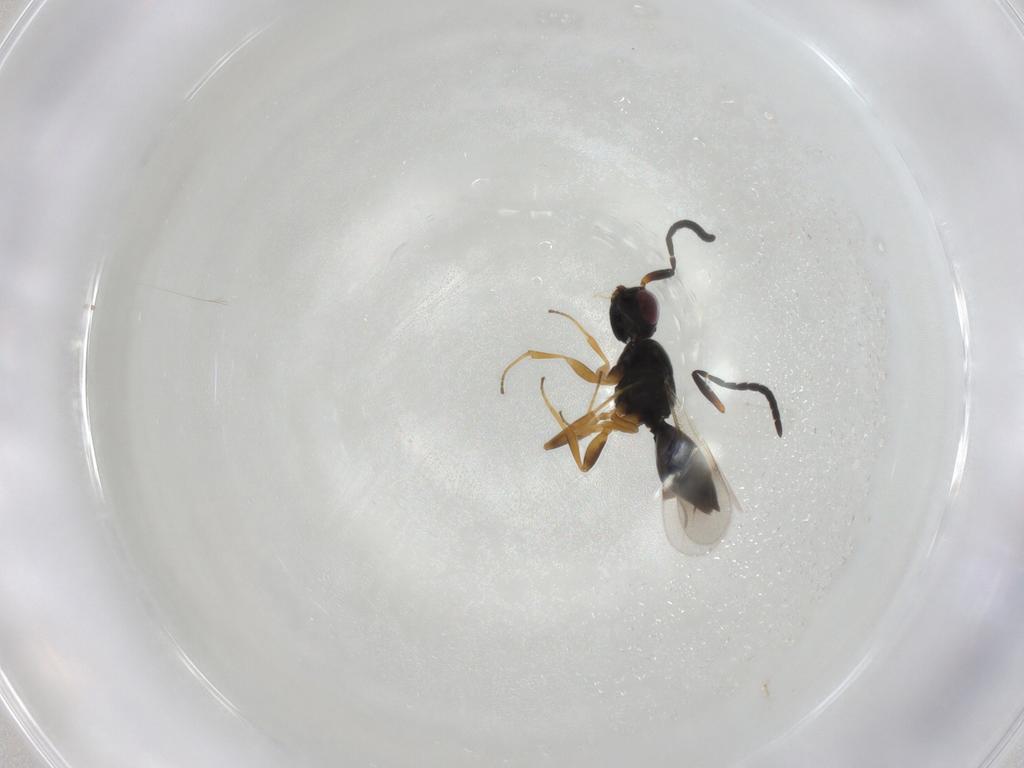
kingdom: Animalia
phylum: Arthropoda
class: Insecta
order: Hymenoptera
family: Megaspilidae
